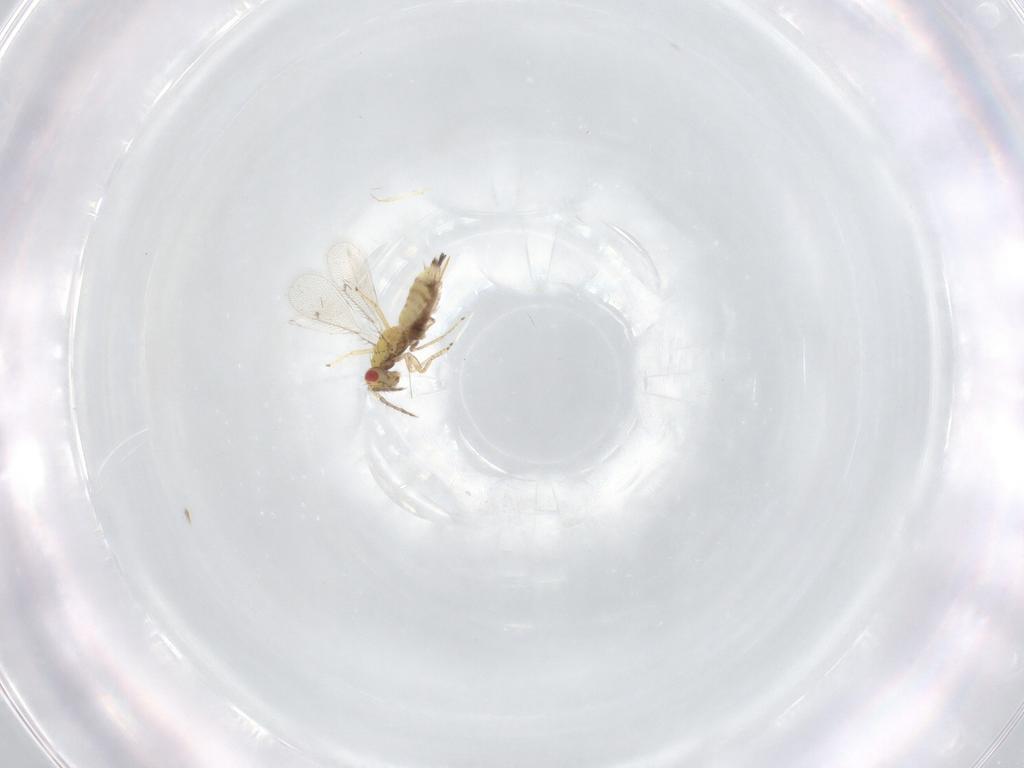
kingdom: Animalia
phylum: Arthropoda
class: Insecta
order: Hymenoptera
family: Eulophidae
